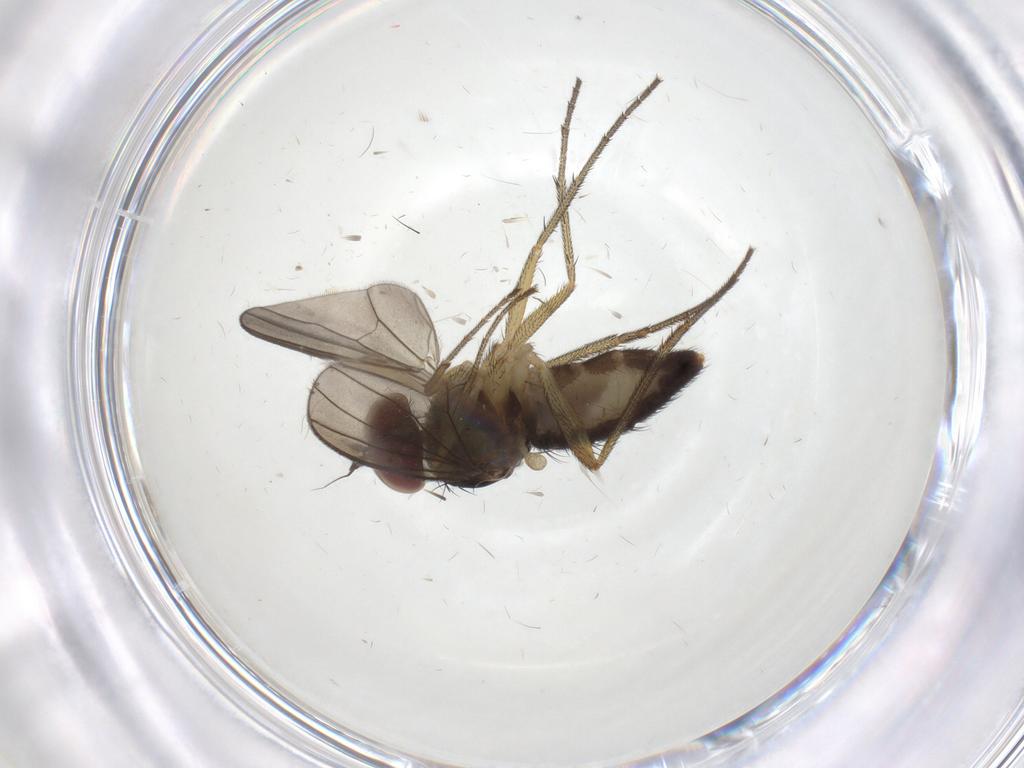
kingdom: Animalia
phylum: Arthropoda
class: Insecta
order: Diptera
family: Dolichopodidae
